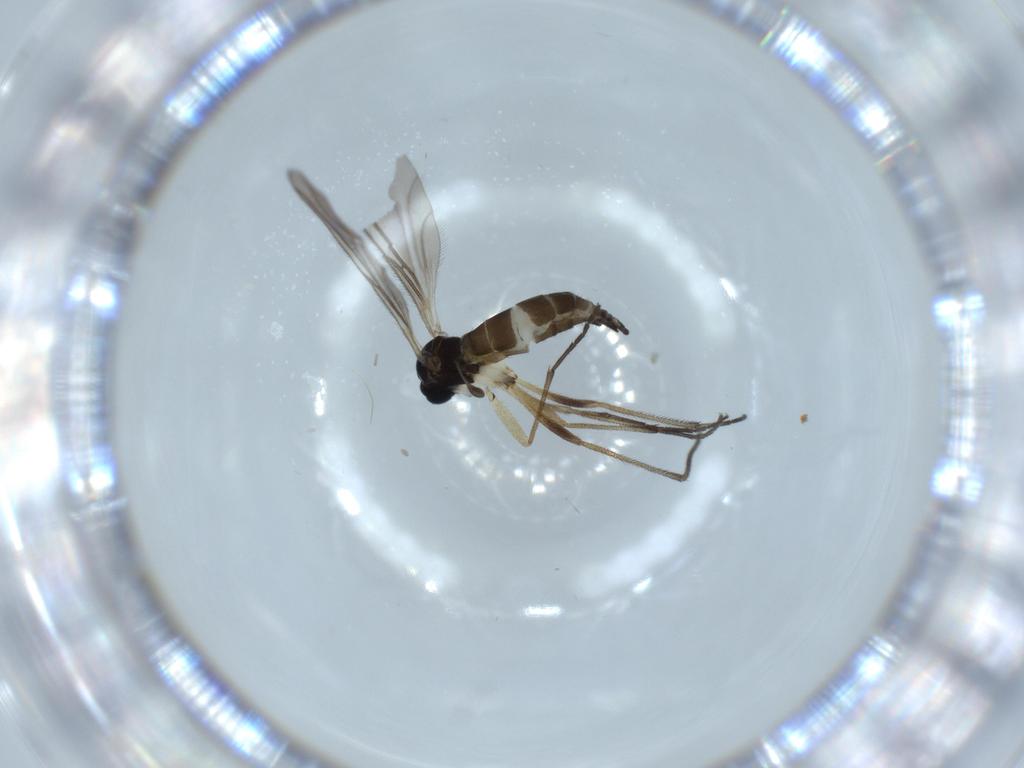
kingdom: Animalia
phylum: Arthropoda
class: Insecta
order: Diptera
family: Sciaridae
